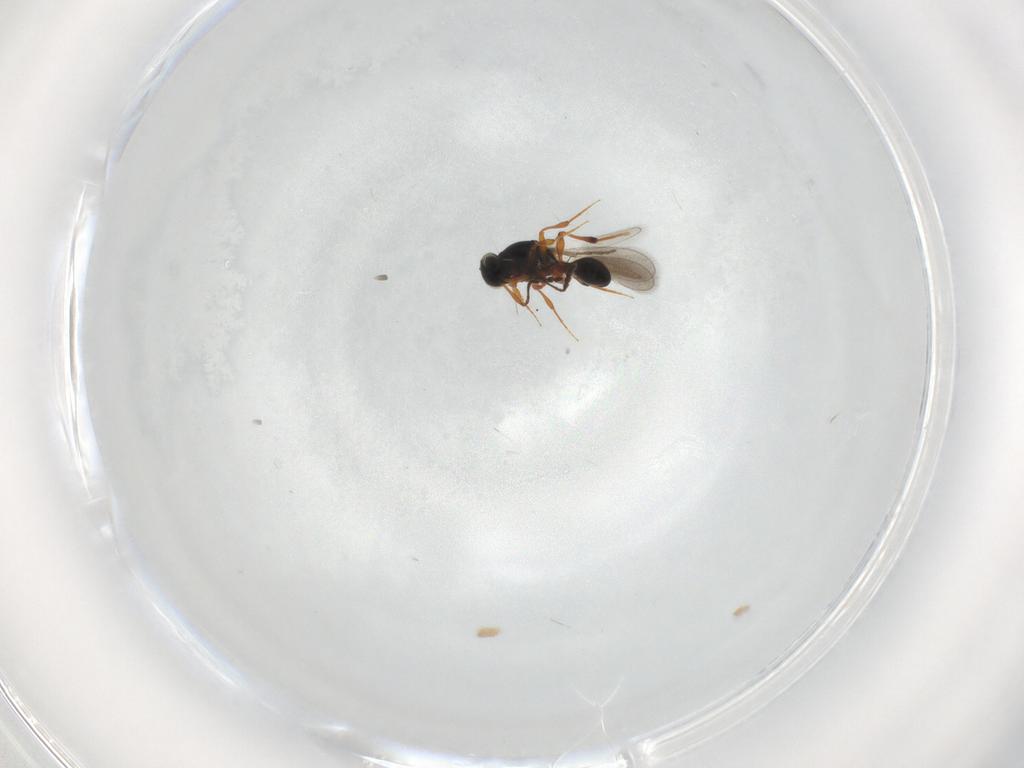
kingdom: Animalia
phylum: Arthropoda
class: Insecta
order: Hymenoptera
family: Platygastridae
